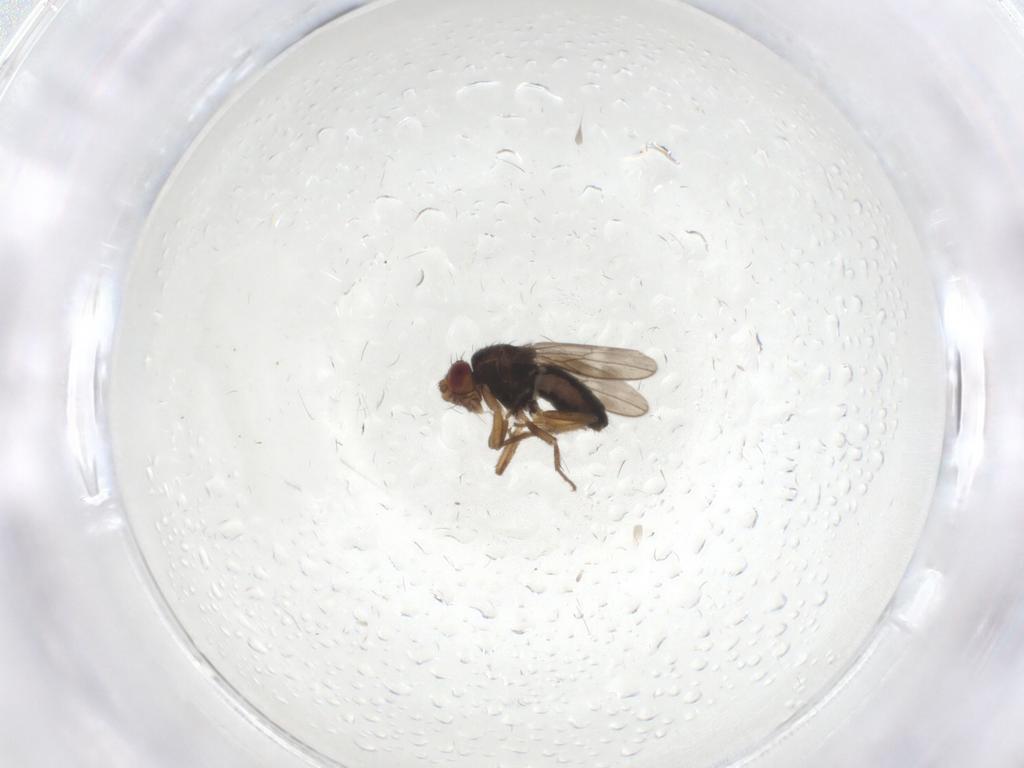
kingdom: Animalia
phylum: Arthropoda
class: Insecta
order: Diptera
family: Sphaeroceridae
